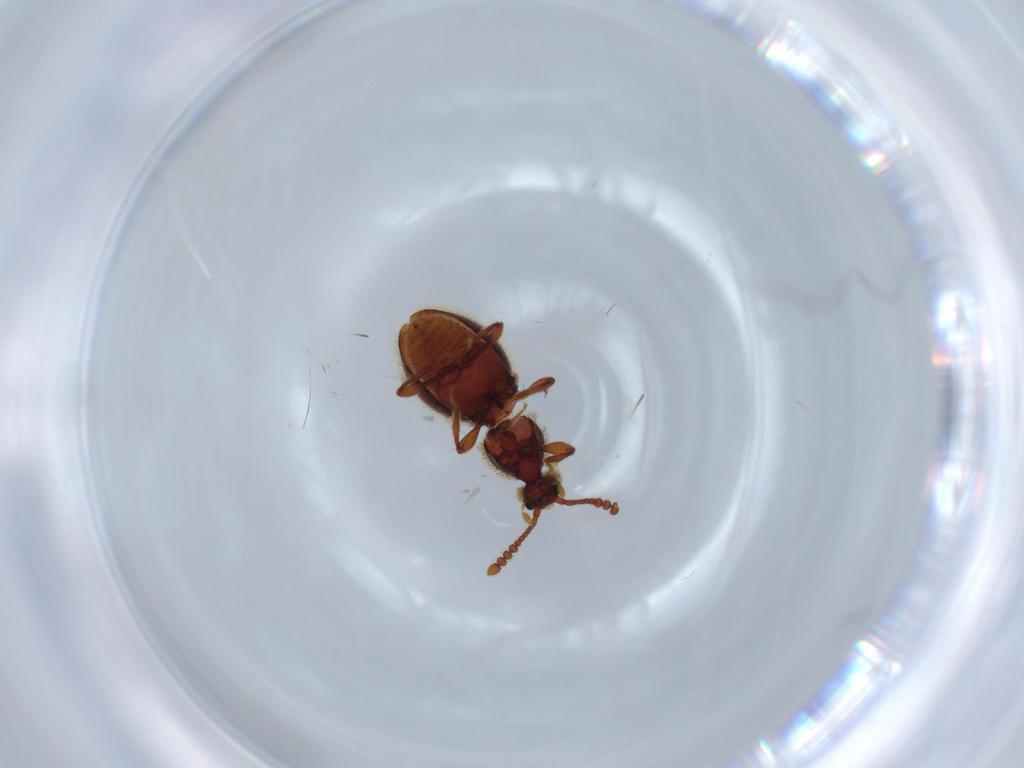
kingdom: Animalia
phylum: Arthropoda
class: Insecta
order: Coleoptera
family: Staphylinidae
